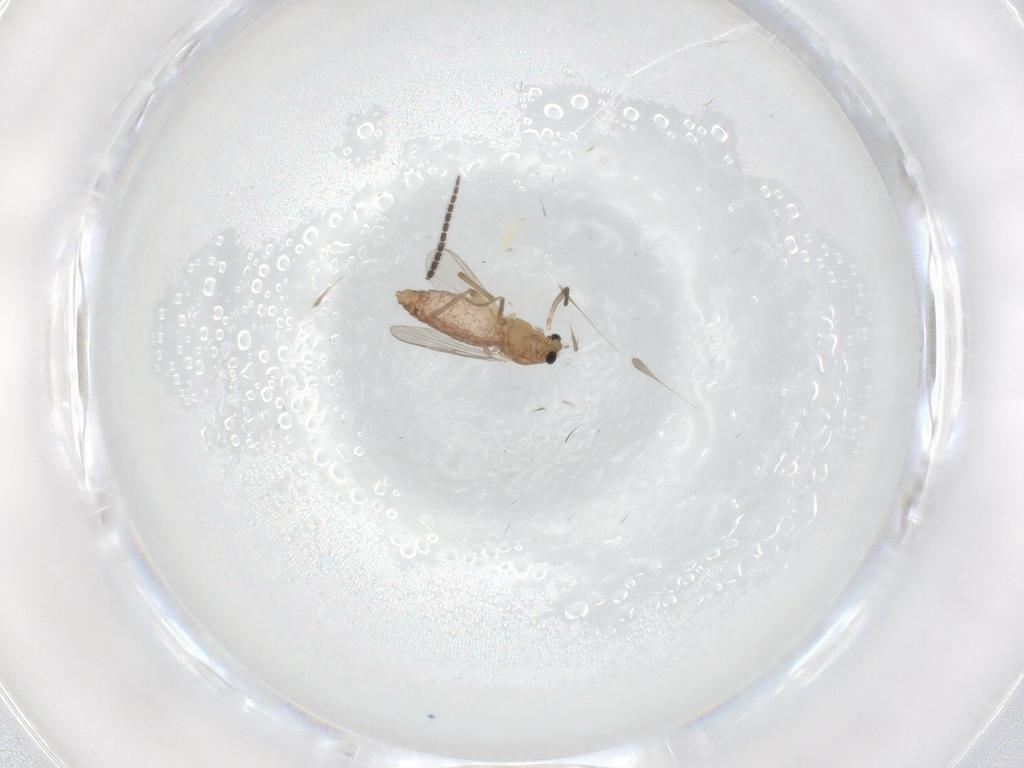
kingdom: Animalia
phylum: Arthropoda
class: Insecta
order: Diptera
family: Chironomidae
